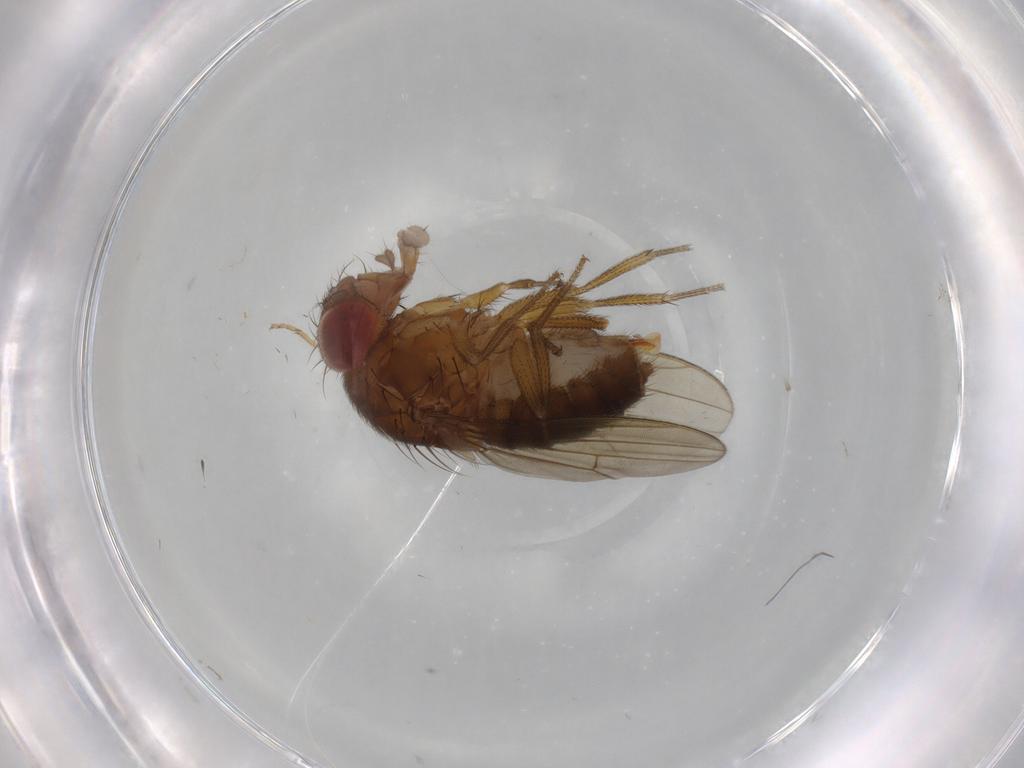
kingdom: Animalia
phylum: Arthropoda
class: Insecta
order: Diptera
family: Drosophilidae
